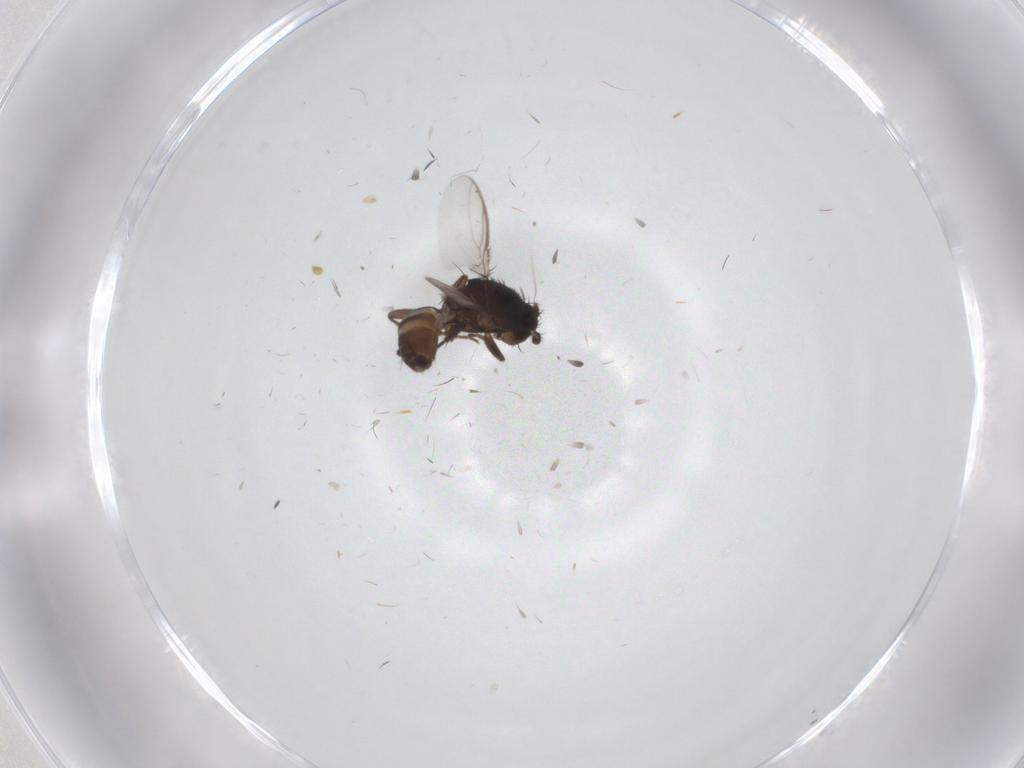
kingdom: Animalia
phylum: Arthropoda
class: Insecta
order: Diptera
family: Sphaeroceridae
